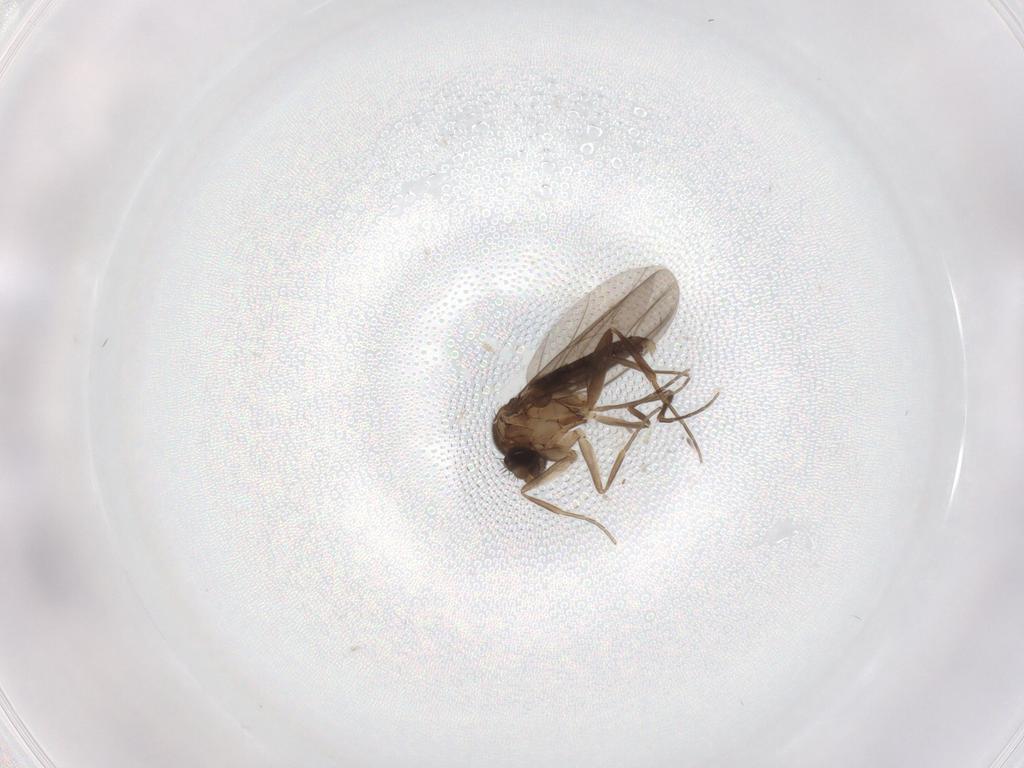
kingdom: Animalia
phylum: Arthropoda
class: Insecta
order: Diptera
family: Phoridae
